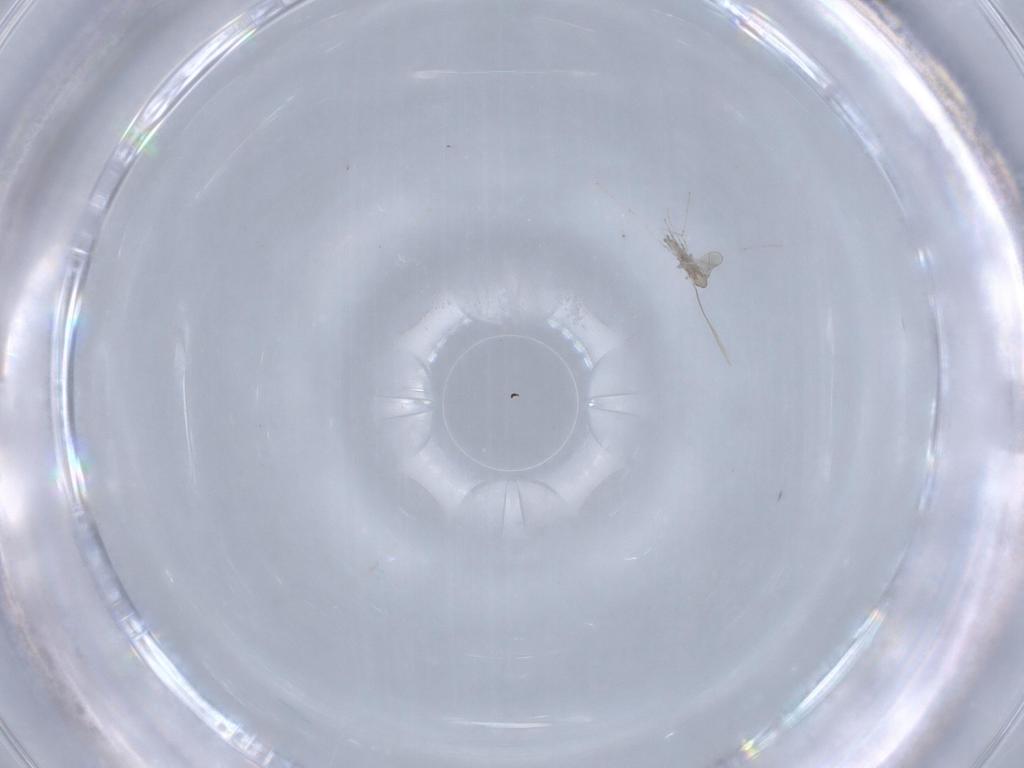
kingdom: Animalia
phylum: Arthropoda
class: Insecta
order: Diptera
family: Cecidomyiidae
